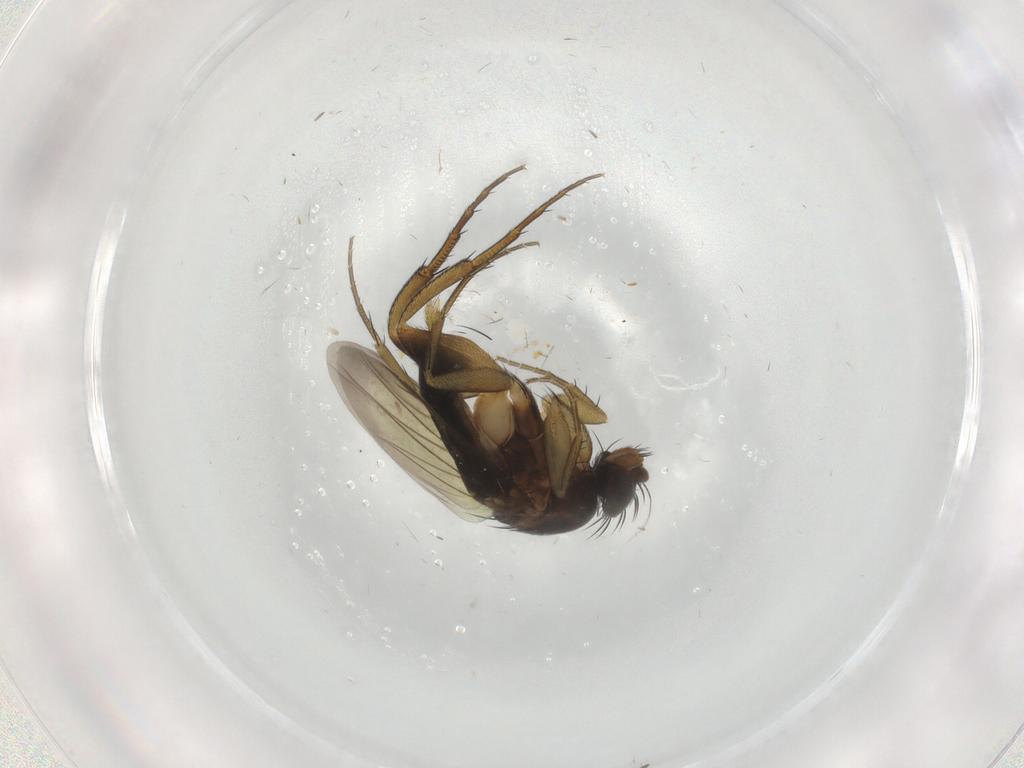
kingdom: Animalia
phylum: Arthropoda
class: Insecta
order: Diptera
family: Phoridae
